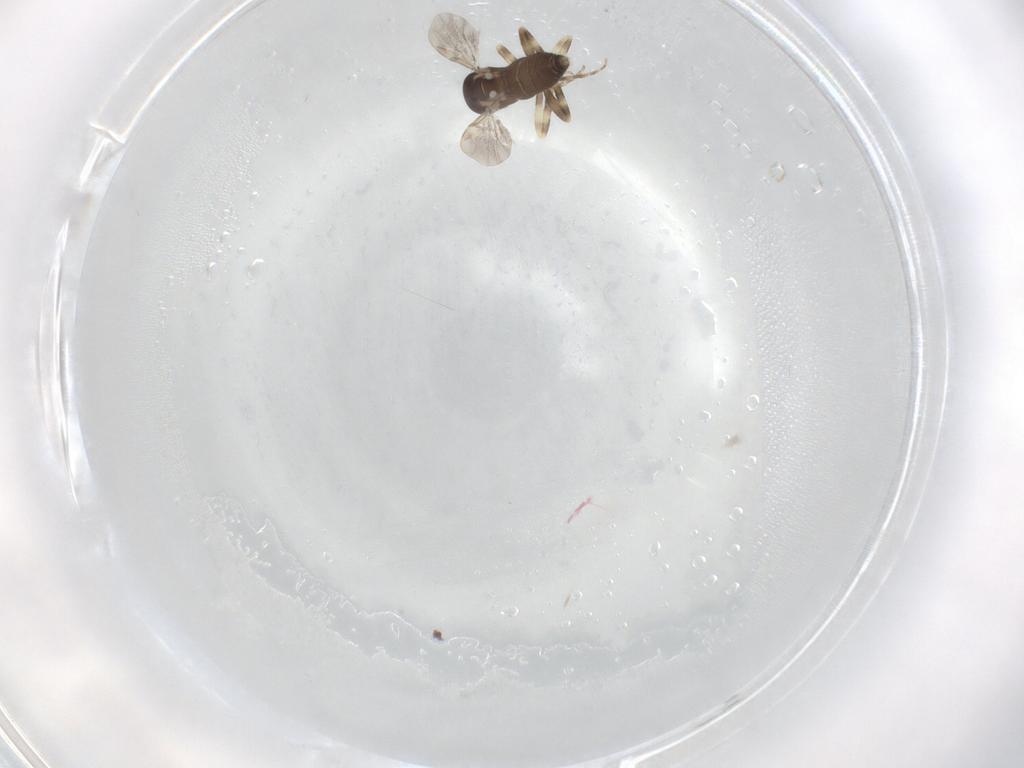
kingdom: Animalia
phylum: Arthropoda
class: Insecta
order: Diptera
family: Ceratopogonidae
